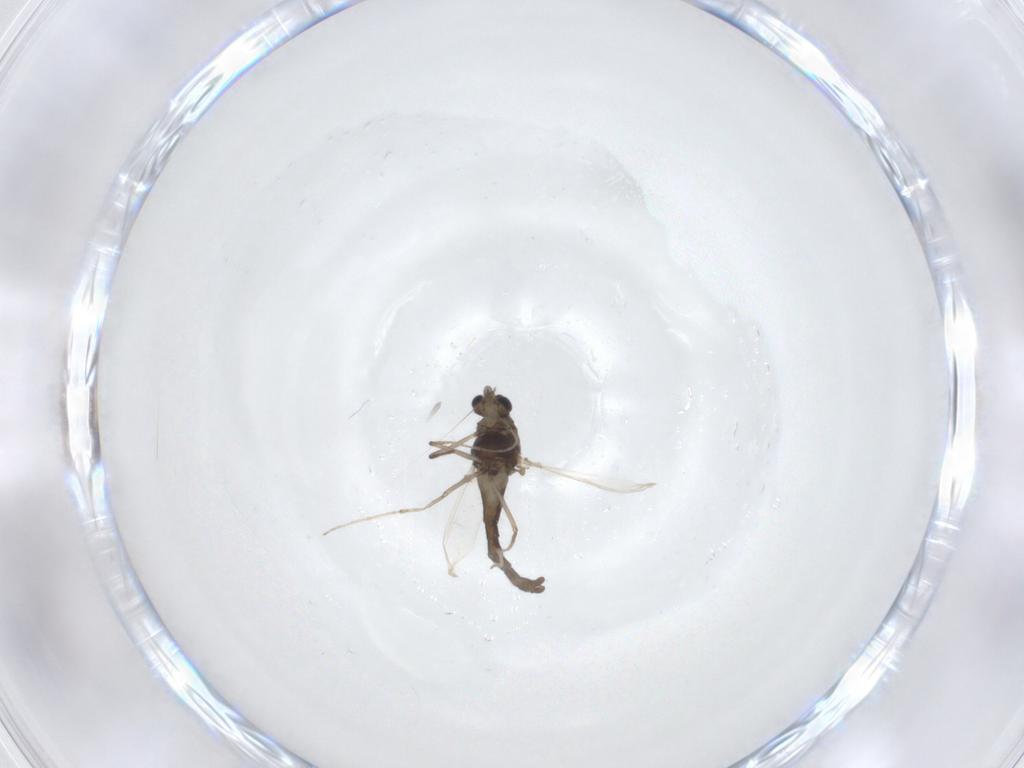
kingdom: Animalia
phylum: Arthropoda
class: Insecta
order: Diptera
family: Chironomidae
